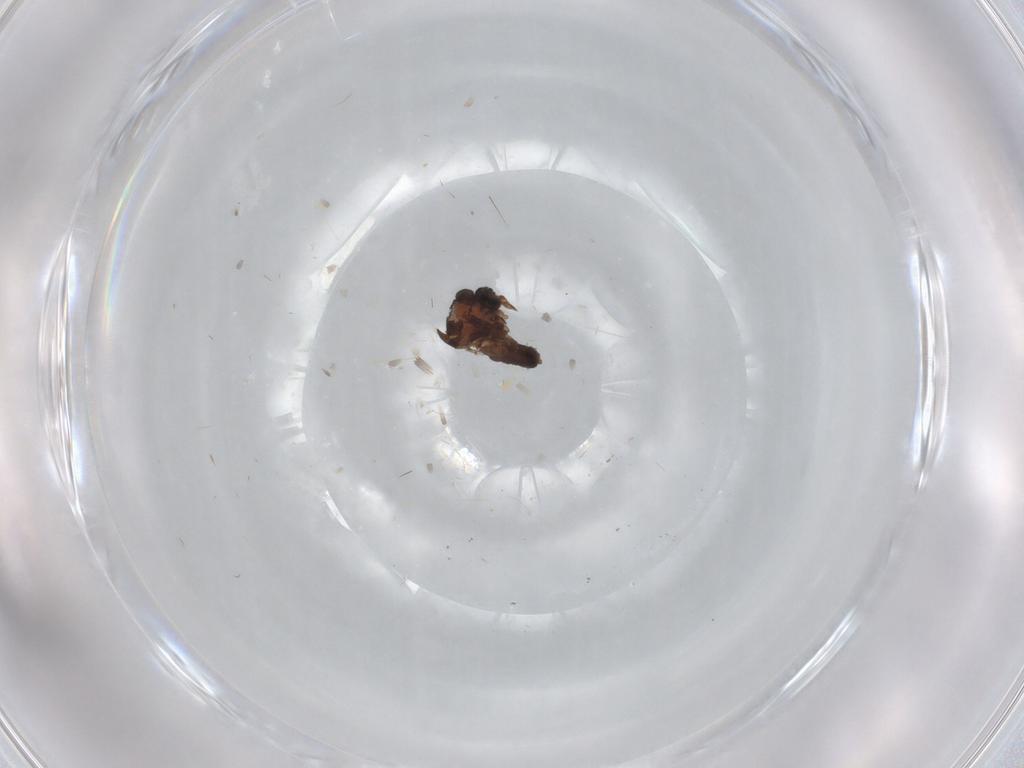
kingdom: Animalia
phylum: Arthropoda
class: Insecta
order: Diptera
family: Ceratopogonidae
